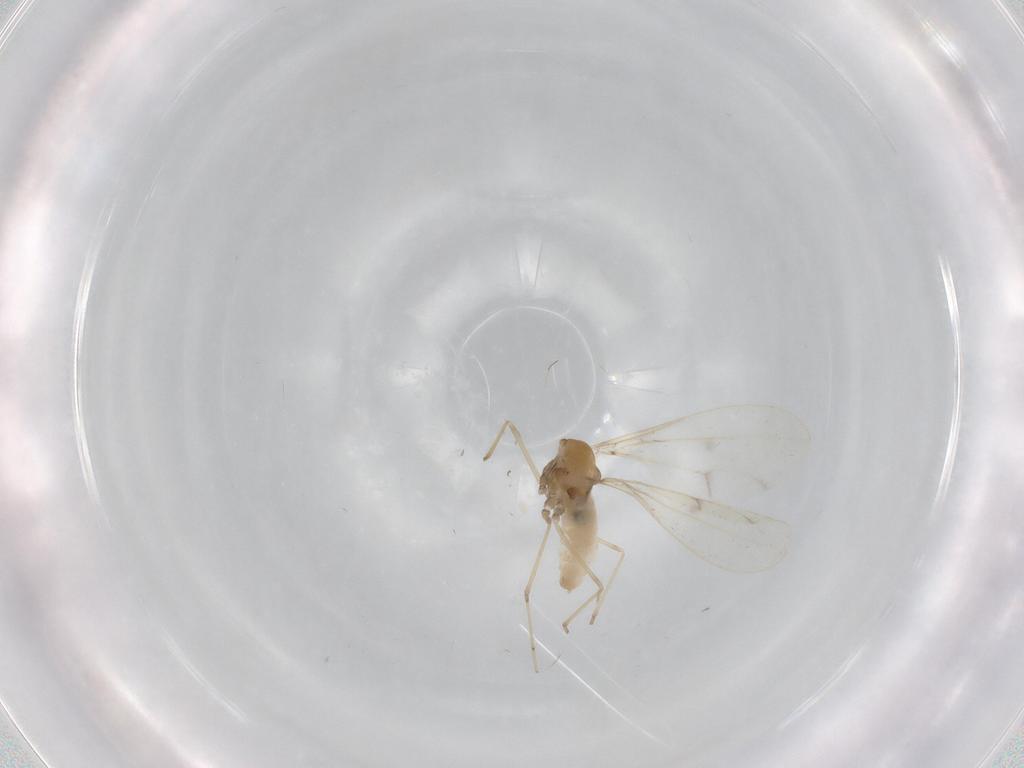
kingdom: Animalia
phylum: Arthropoda
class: Insecta
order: Diptera
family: Cecidomyiidae
